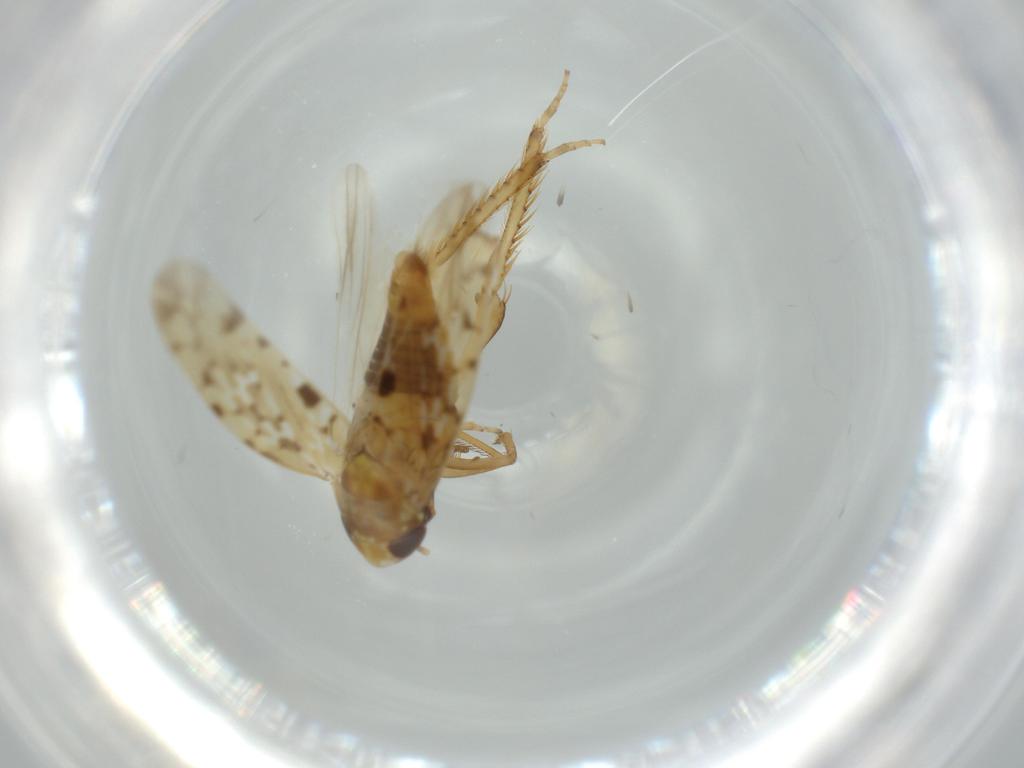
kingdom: Animalia
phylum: Arthropoda
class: Insecta
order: Hemiptera
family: Cicadellidae
